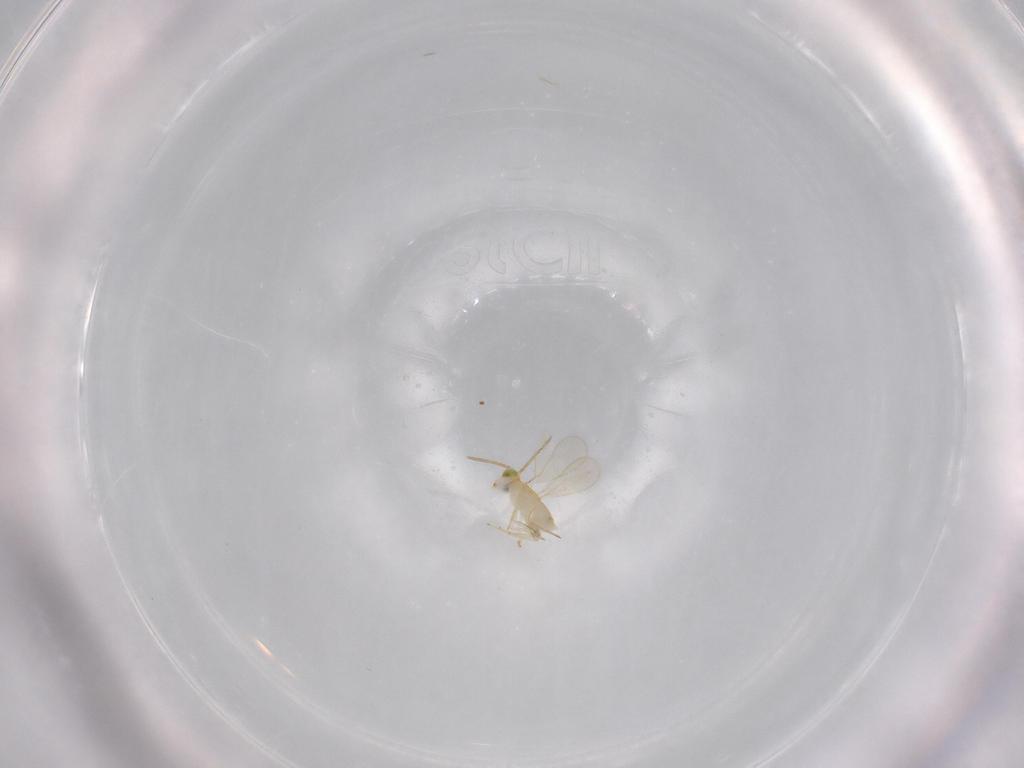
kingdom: Animalia
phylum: Arthropoda
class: Insecta
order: Hymenoptera
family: Aphelinidae
